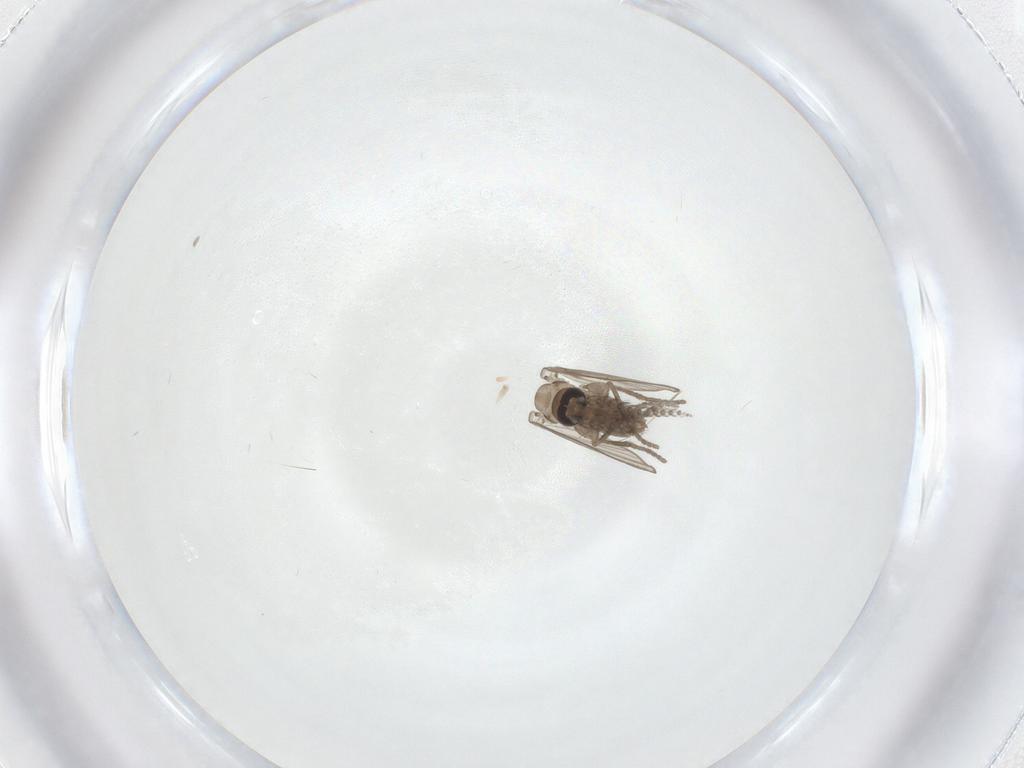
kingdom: Animalia
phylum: Arthropoda
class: Insecta
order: Diptera
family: Psychodidae
